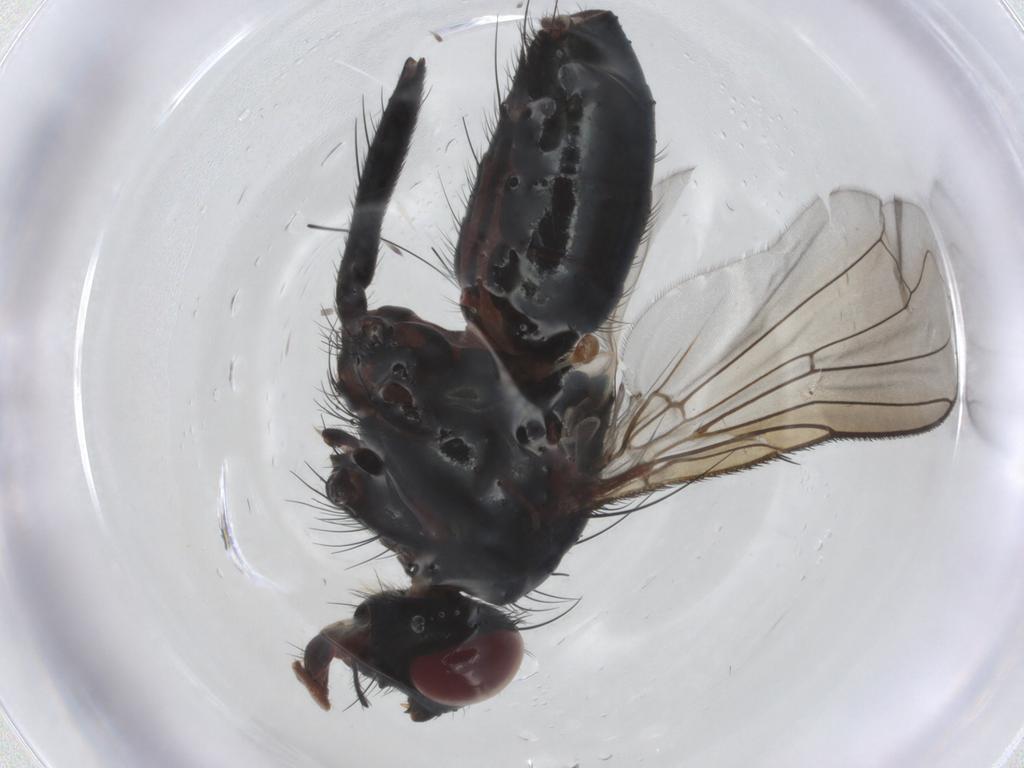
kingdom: Animalia
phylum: Arthropoda
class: Insecta
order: Diptera
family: Tachinidae
